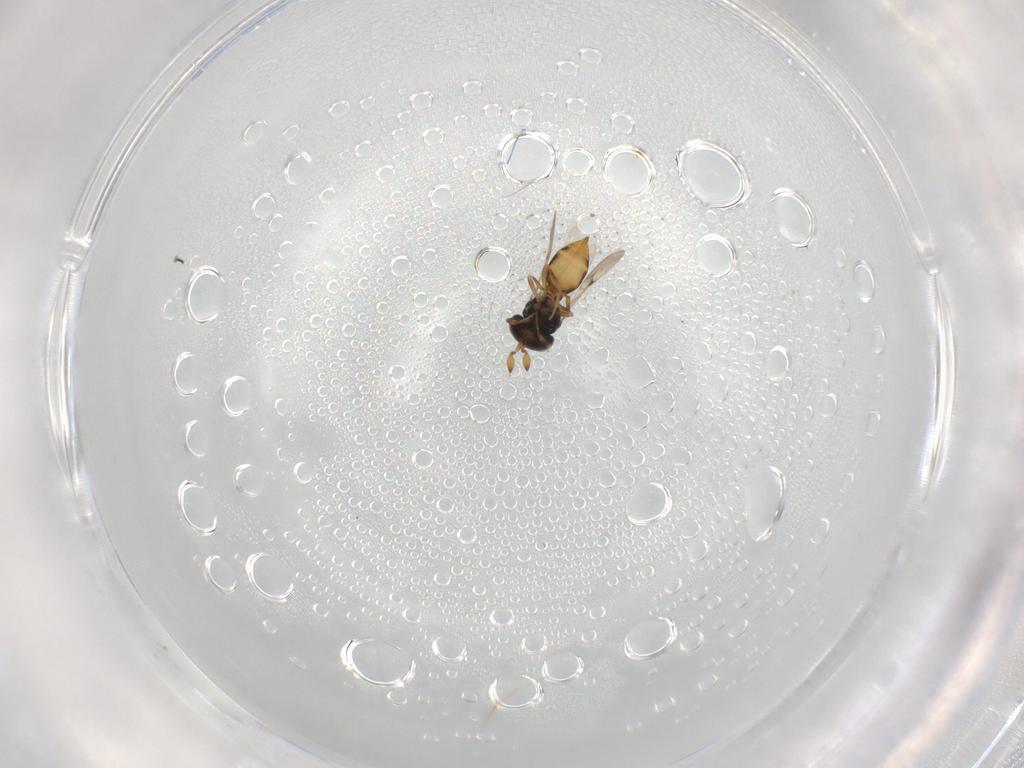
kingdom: Animalia
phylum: Arthropoda
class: Insecta
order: Hymenoptera
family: Scelionidae
